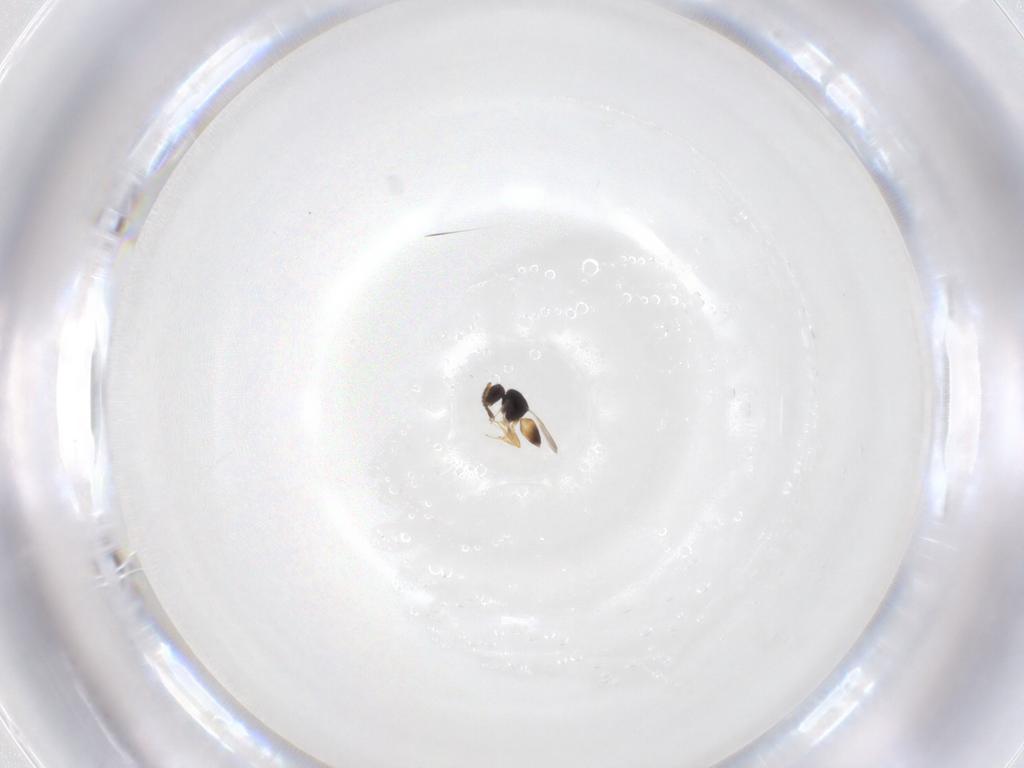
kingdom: Animalia
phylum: Arthropoda
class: Insecta
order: Hymenoptera
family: Scelionidae
